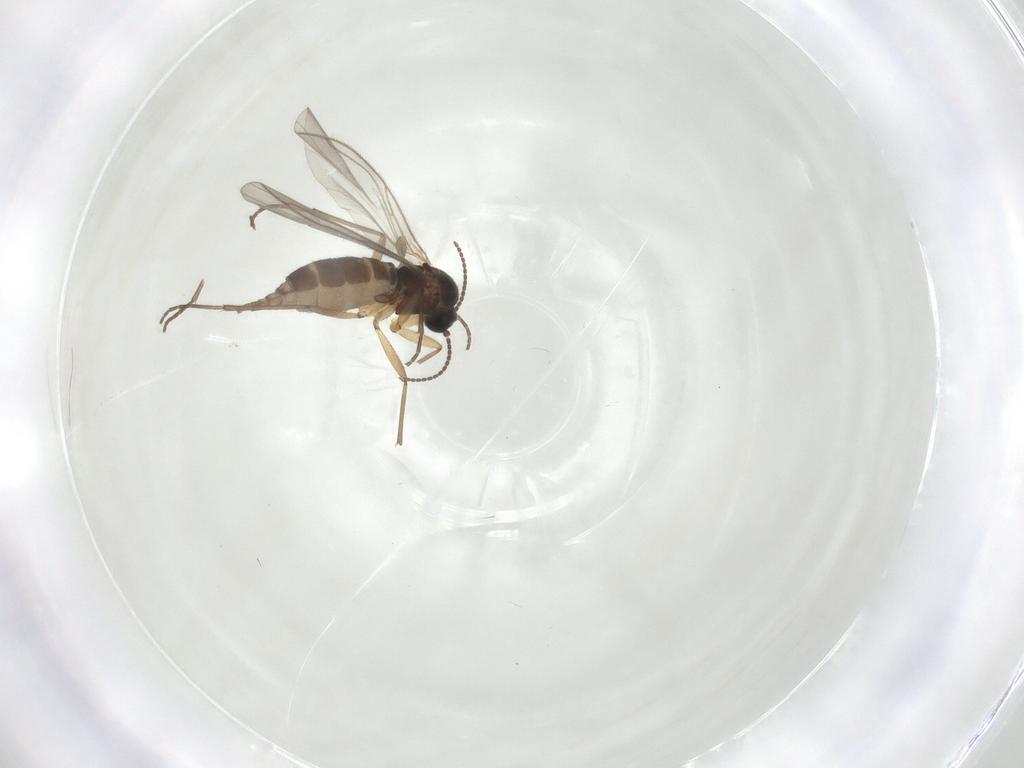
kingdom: Animalia
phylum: Arthropoda
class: Insecta
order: Diptera
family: Sciaridae
